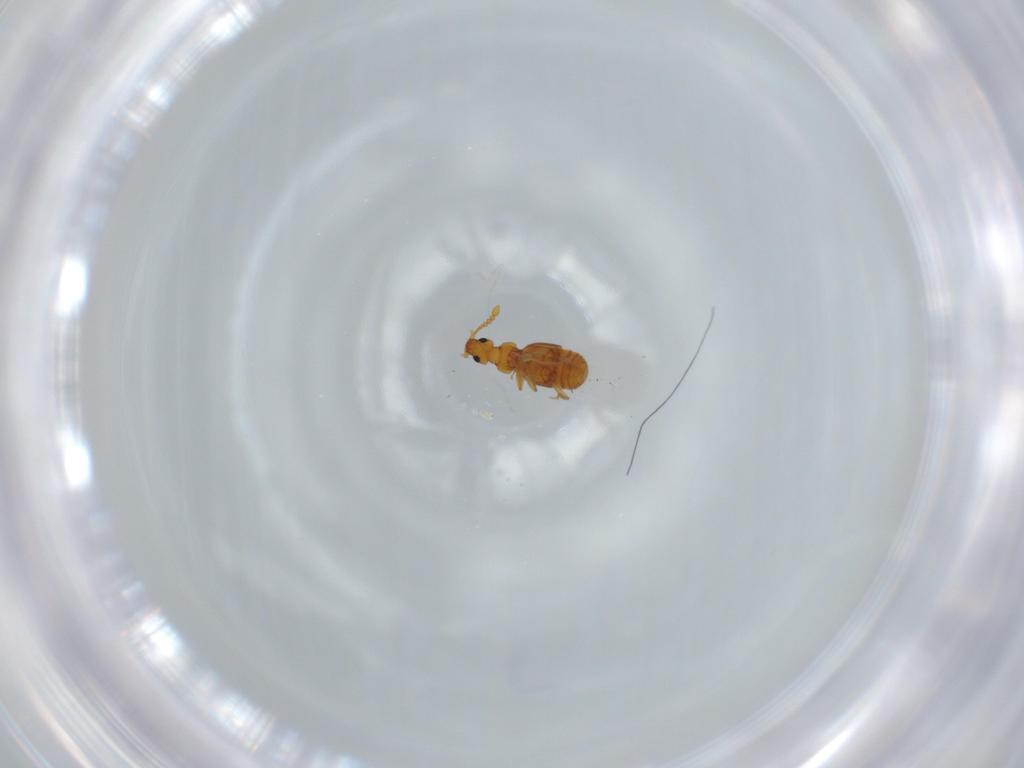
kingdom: Animalia
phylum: Arthropoda
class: Insecta
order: Coleoptera
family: Staphylinidae
